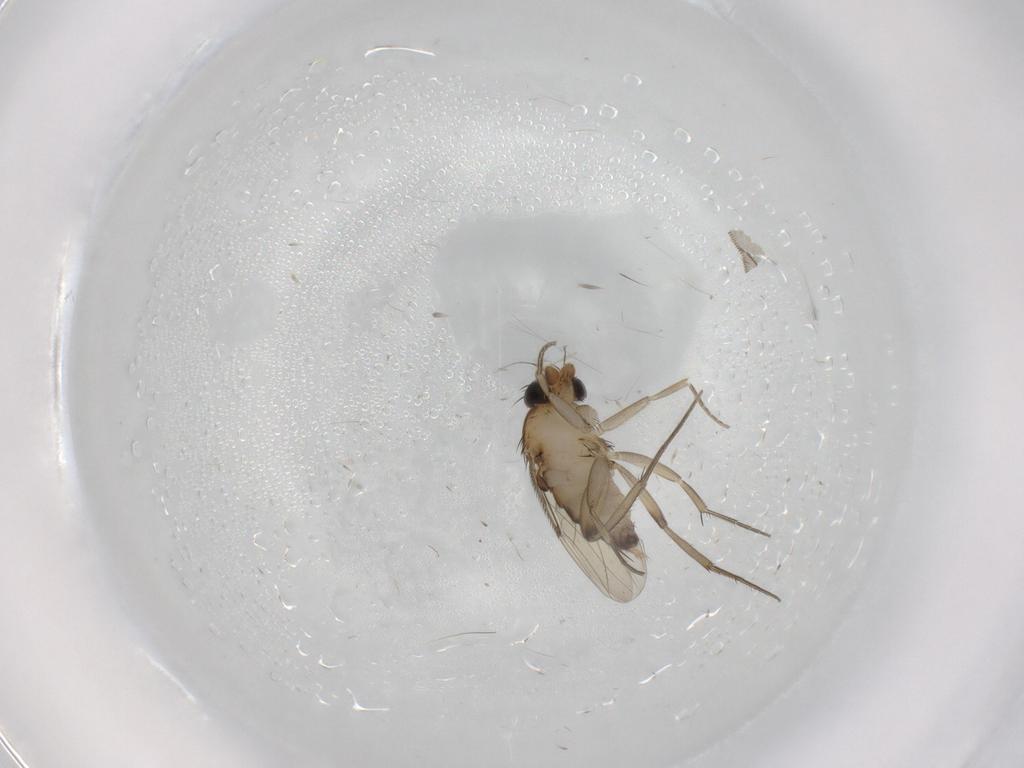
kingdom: Animalia
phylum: Arthropoda
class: Insecta
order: Diptera
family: Phoridae
